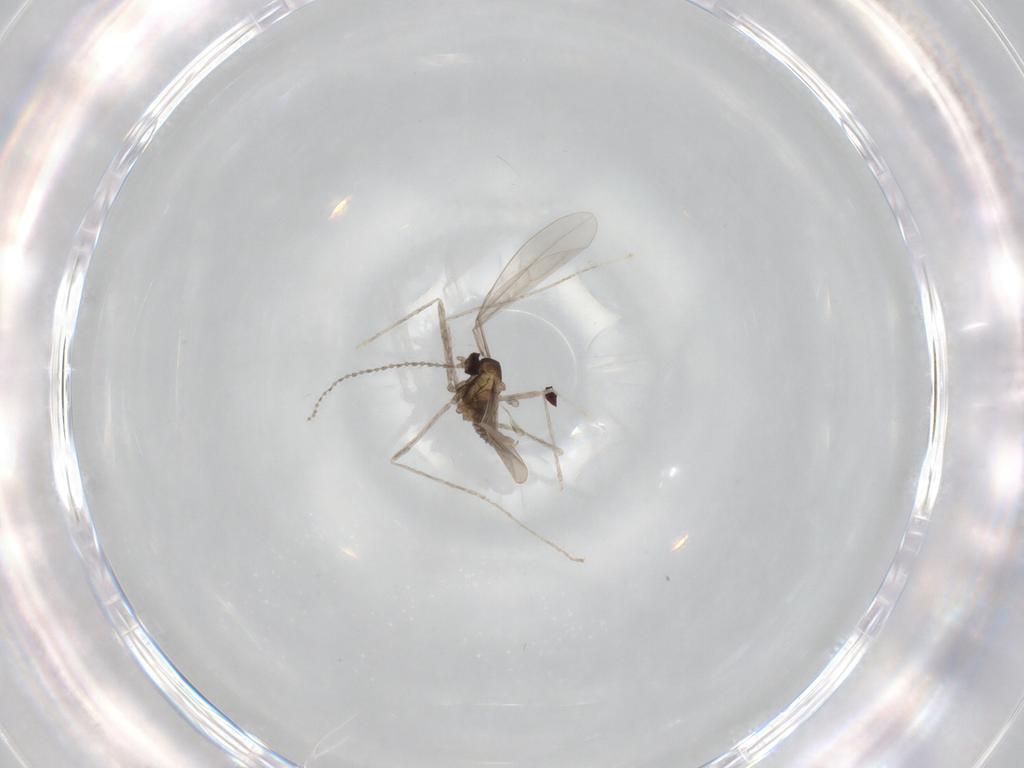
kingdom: Animalia
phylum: Arthropoda
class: Insecta
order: Diptera
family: Cecidomyiidae
